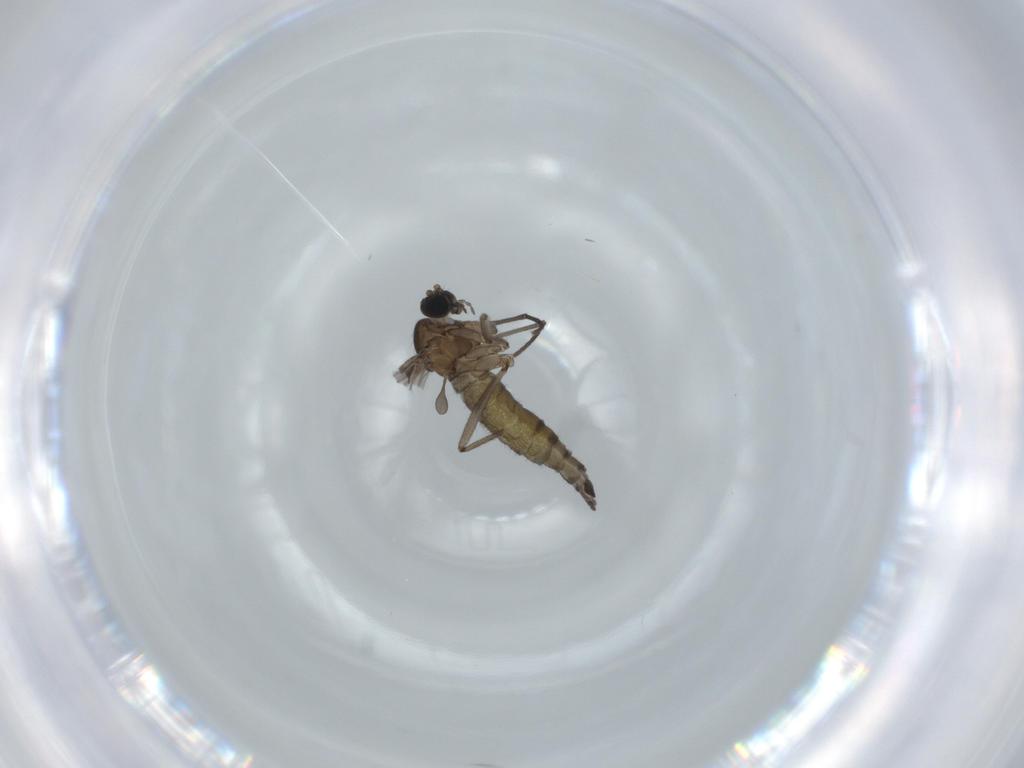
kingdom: Animalia
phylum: Arthropoda
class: Insecta
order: Diptera
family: Sciaridae
